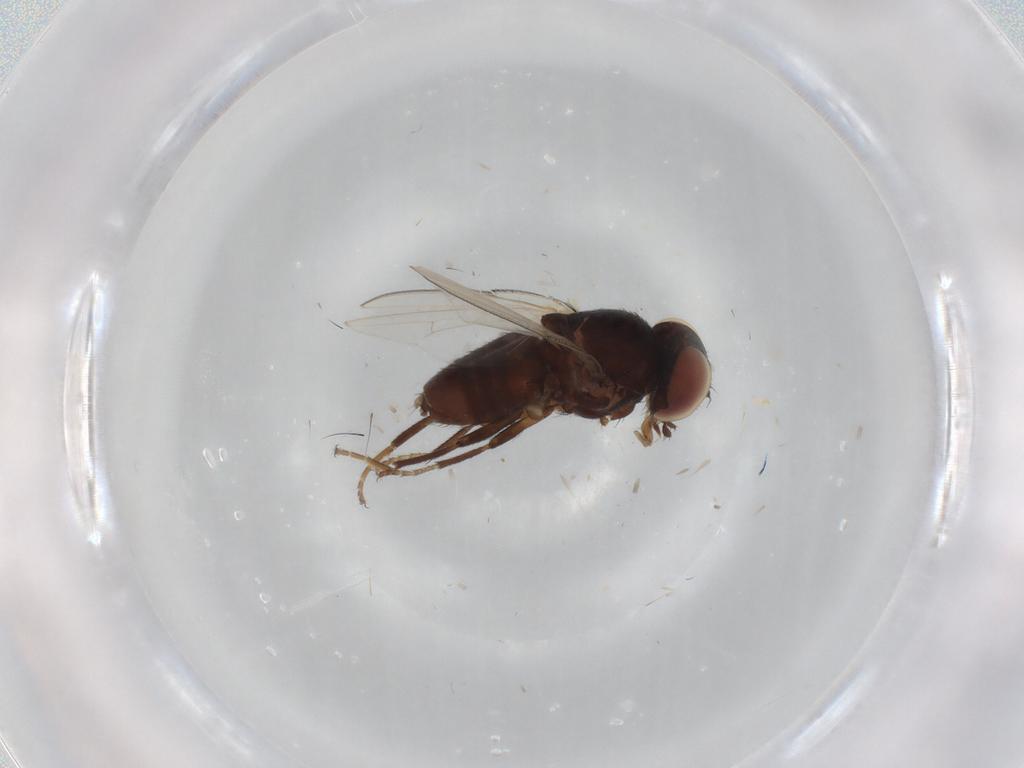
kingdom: Animalia
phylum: Arthropoda
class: Insecta
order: Diptera
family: Milichiidae
